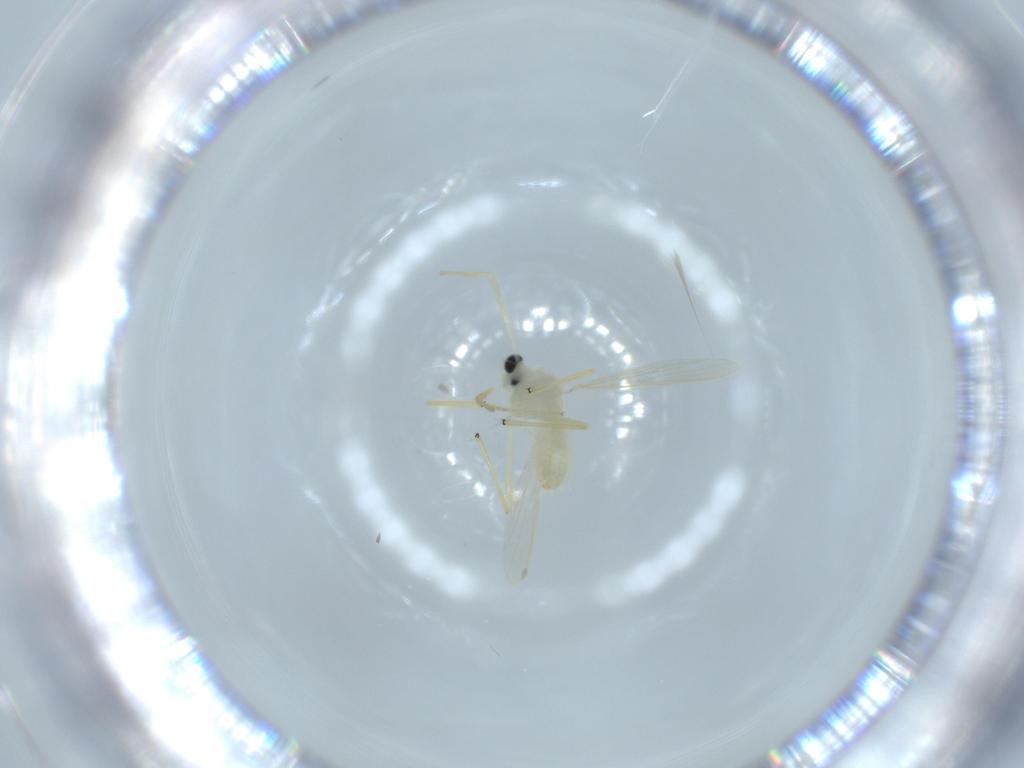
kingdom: Animalia
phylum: Arthropoda
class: Insecta
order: Diptera
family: Chironomidae
